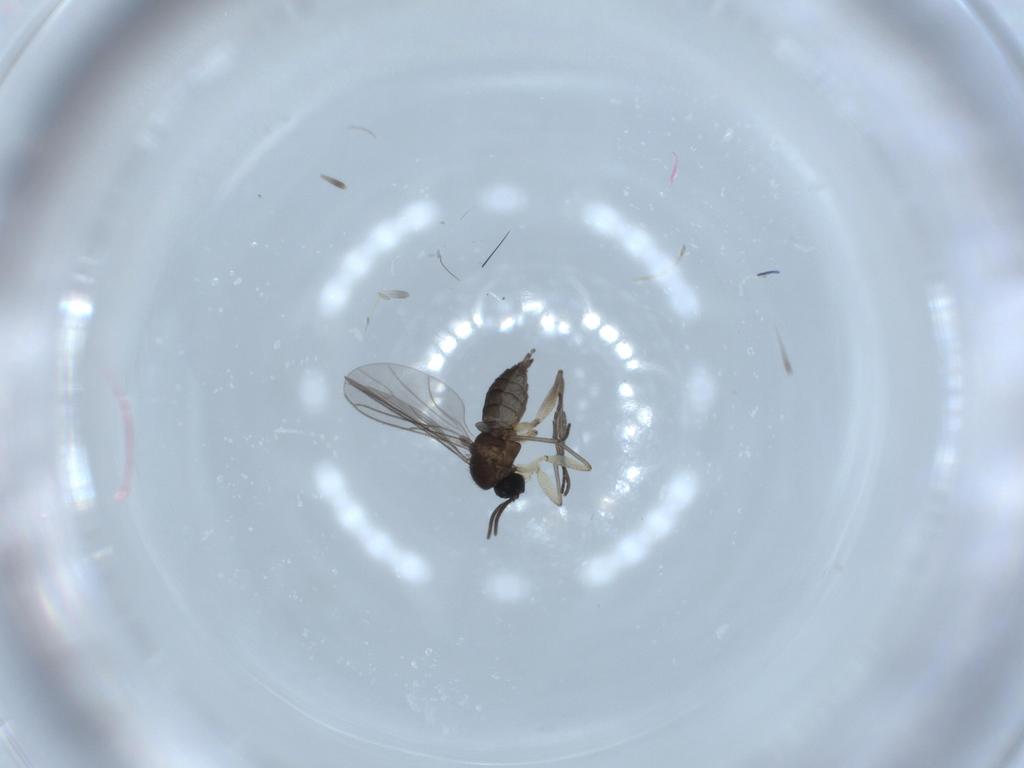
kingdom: Animalia
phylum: Arthropoda
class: Insecta
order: Diptera
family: Sciaridae
